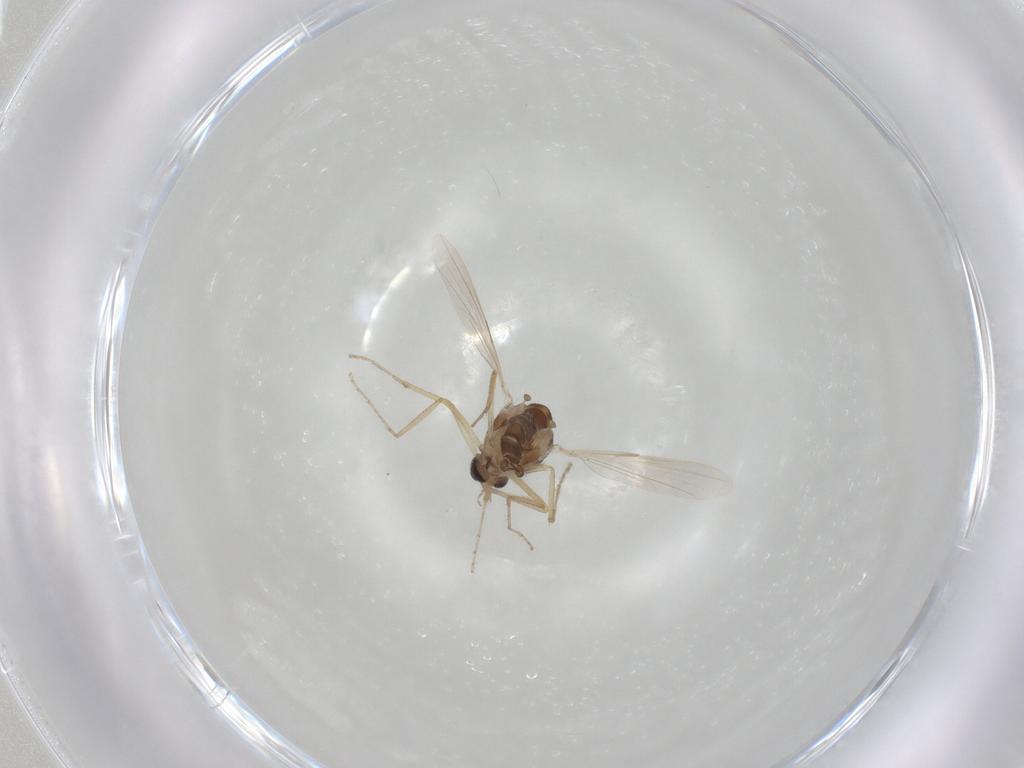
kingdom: Animalia
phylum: Arthropoda
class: Insecta
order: Diptera
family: Ceratopogonidae
